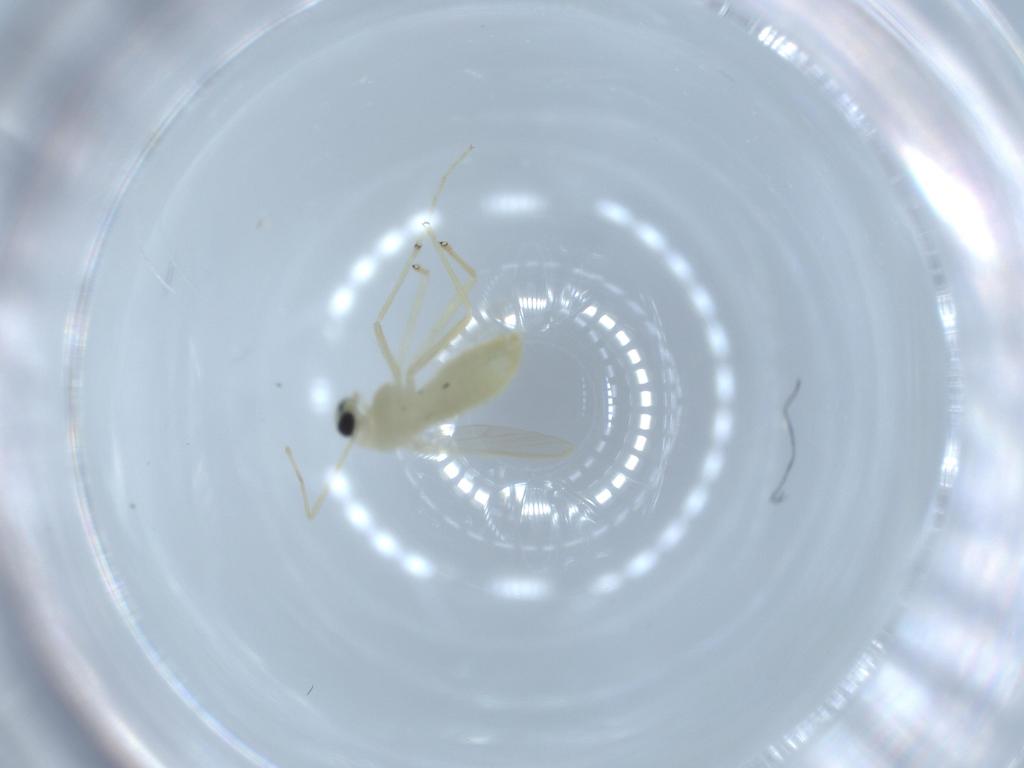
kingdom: Animalia
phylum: Arthropoda
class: Insecta
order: Diptera
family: Chironomidae
